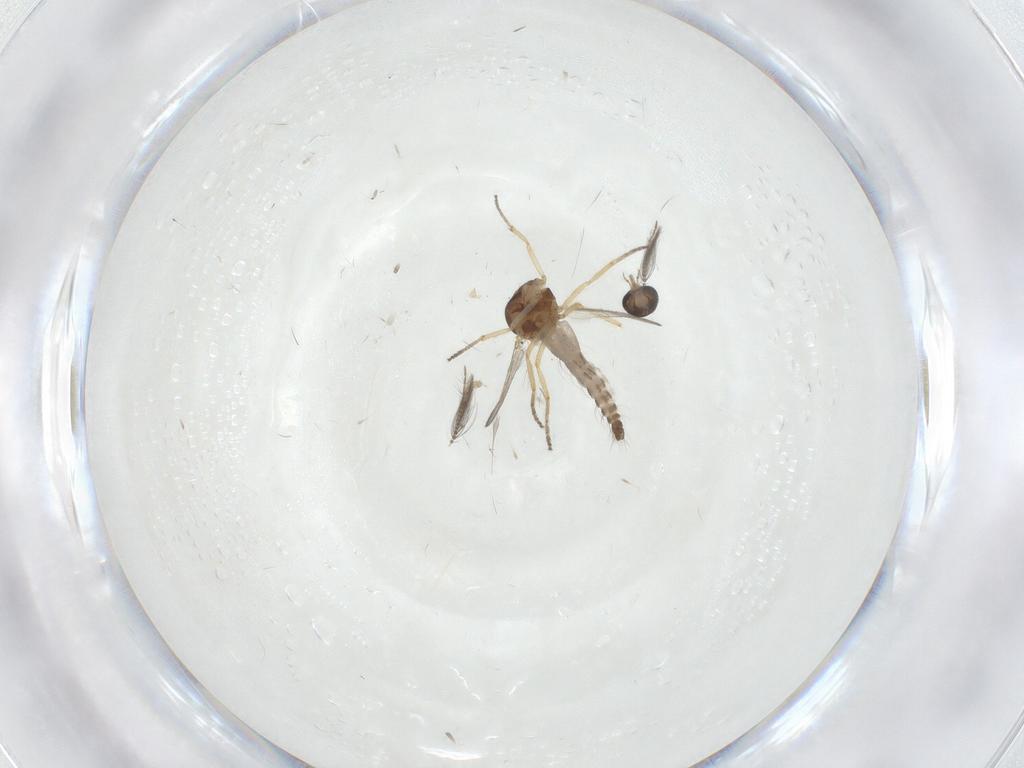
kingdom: Animalia
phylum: Arthropoda
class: Insecta
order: Diptera
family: Ceratopogonidae
